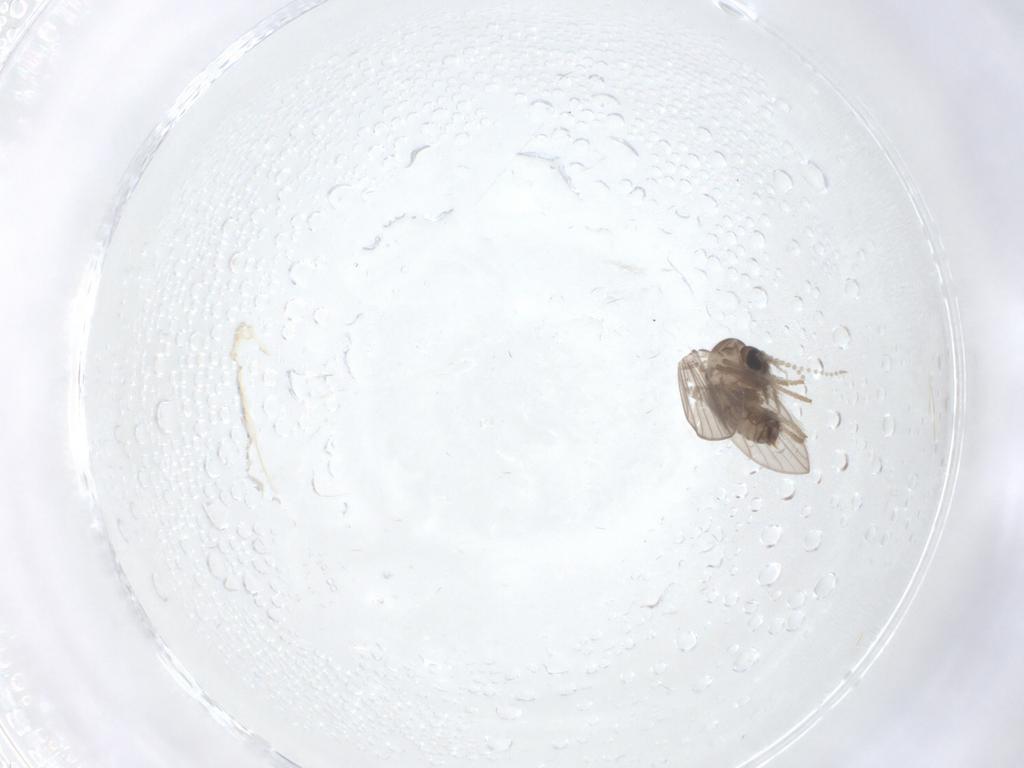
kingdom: Animalia
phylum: Arthropoda
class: Insecta
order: Diptera
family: Psychodidae
